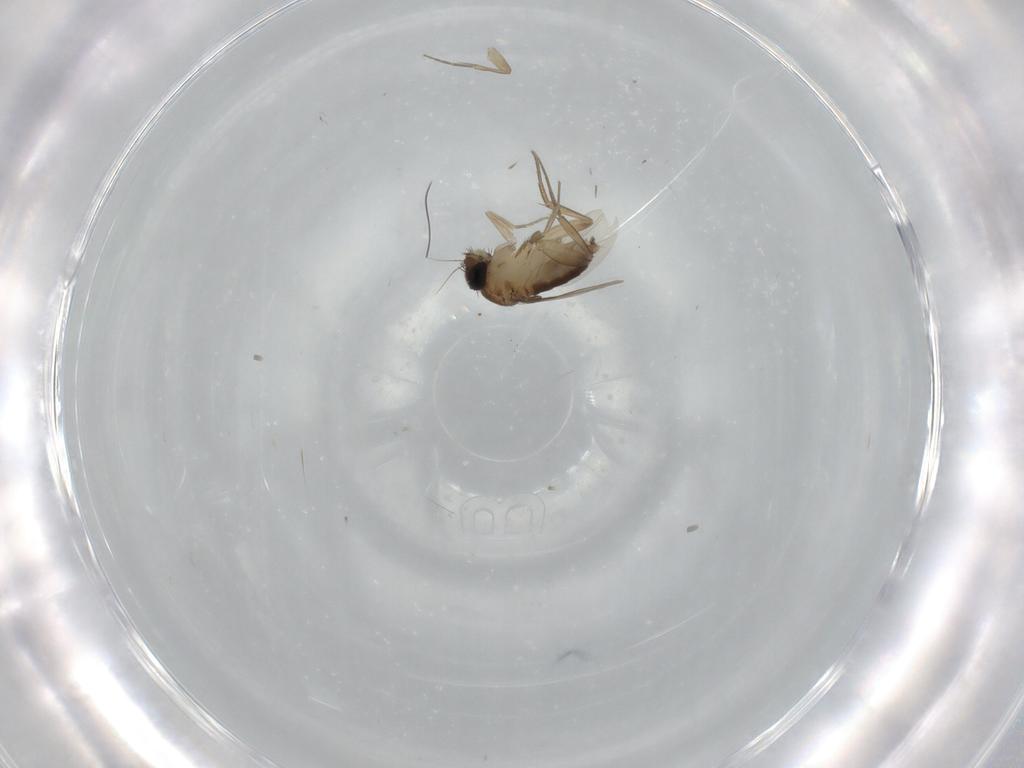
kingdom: Animalia
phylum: Arthropoda
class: Insecta
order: Diptera
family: Phoridae
